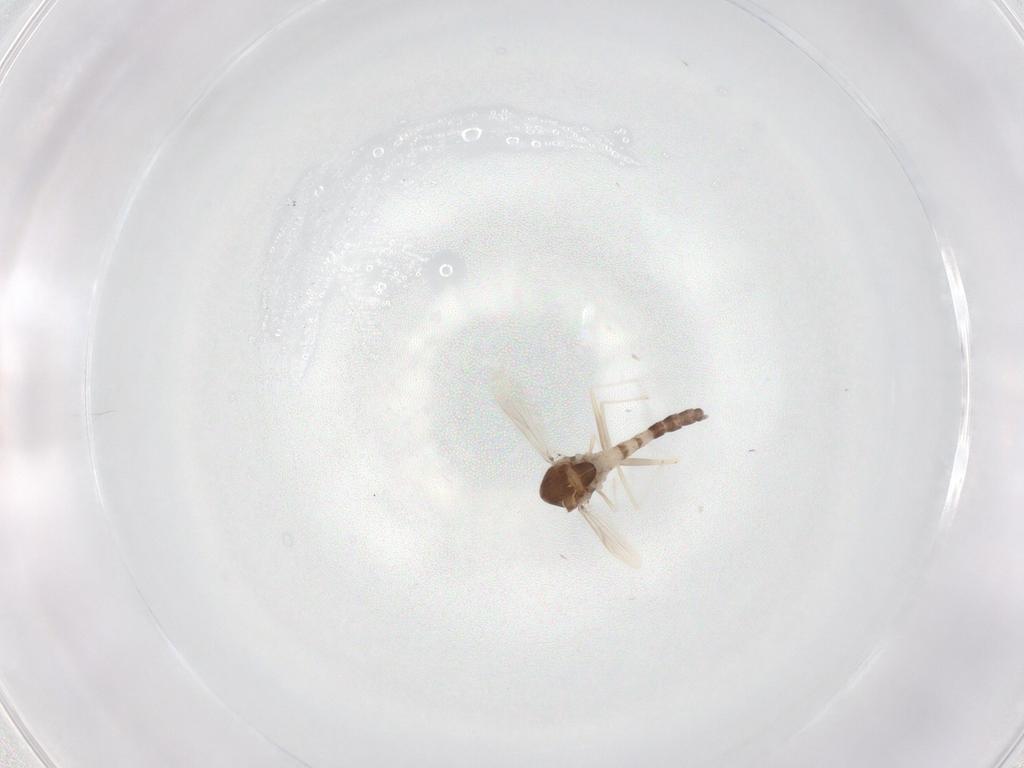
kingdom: Animalia
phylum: Arthropoda
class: Insecta
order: Diptera
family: Chironomidae
